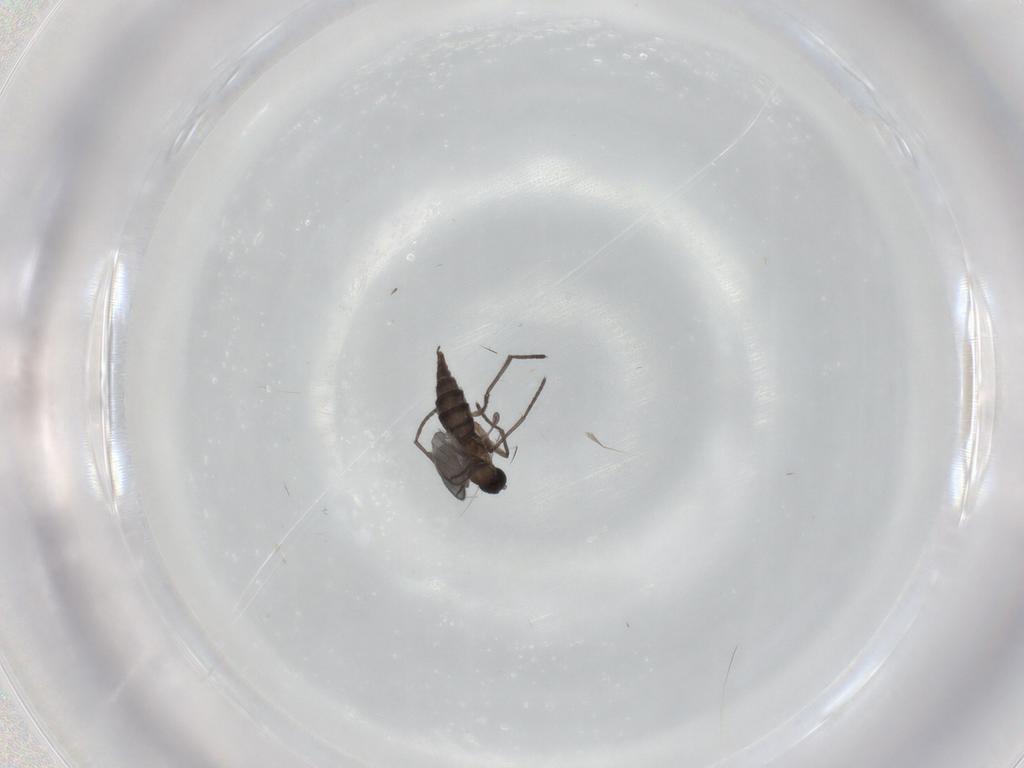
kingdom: Animalia
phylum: Arthropoda
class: Insecta
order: Diptera
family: Sciaridae
